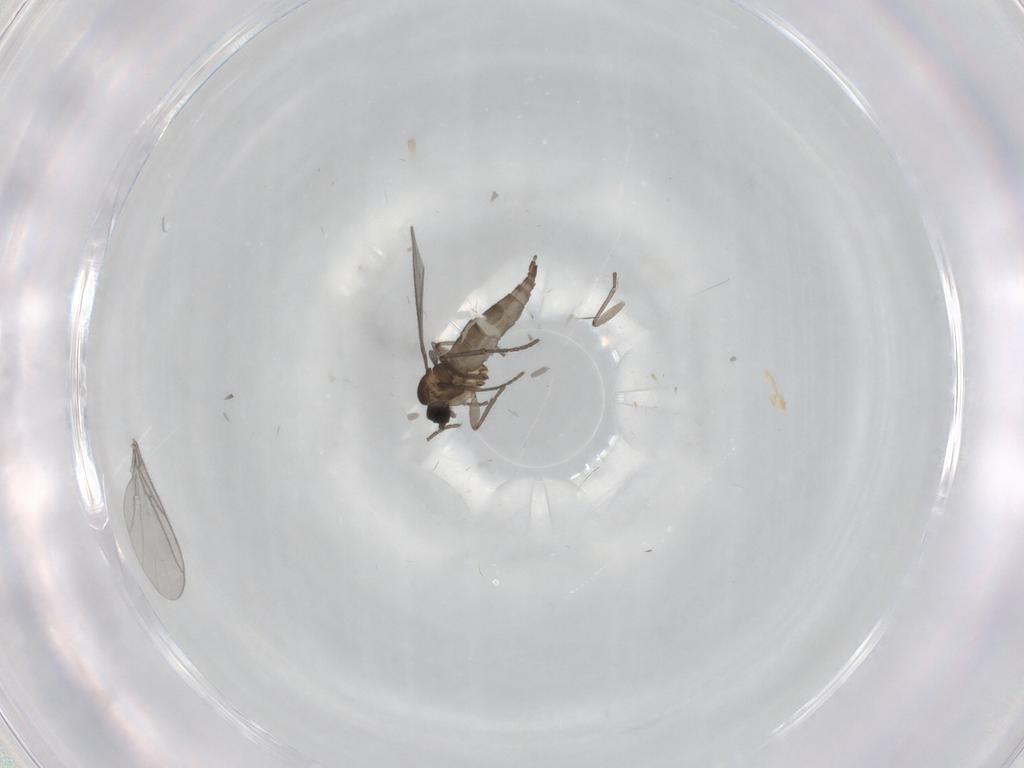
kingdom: Animalia
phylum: Arthropoda
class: Insecta
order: Diptera
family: Sciaridae
